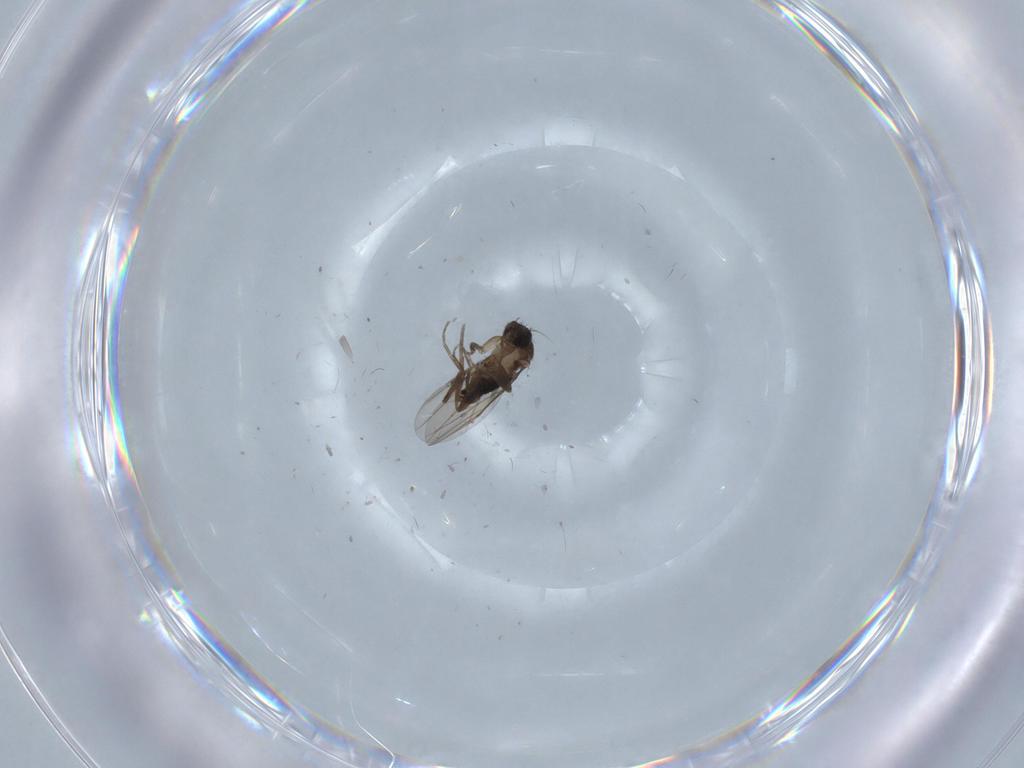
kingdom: Animalia
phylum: Arthropoda
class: Insecta
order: Diptera
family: Phoridae
